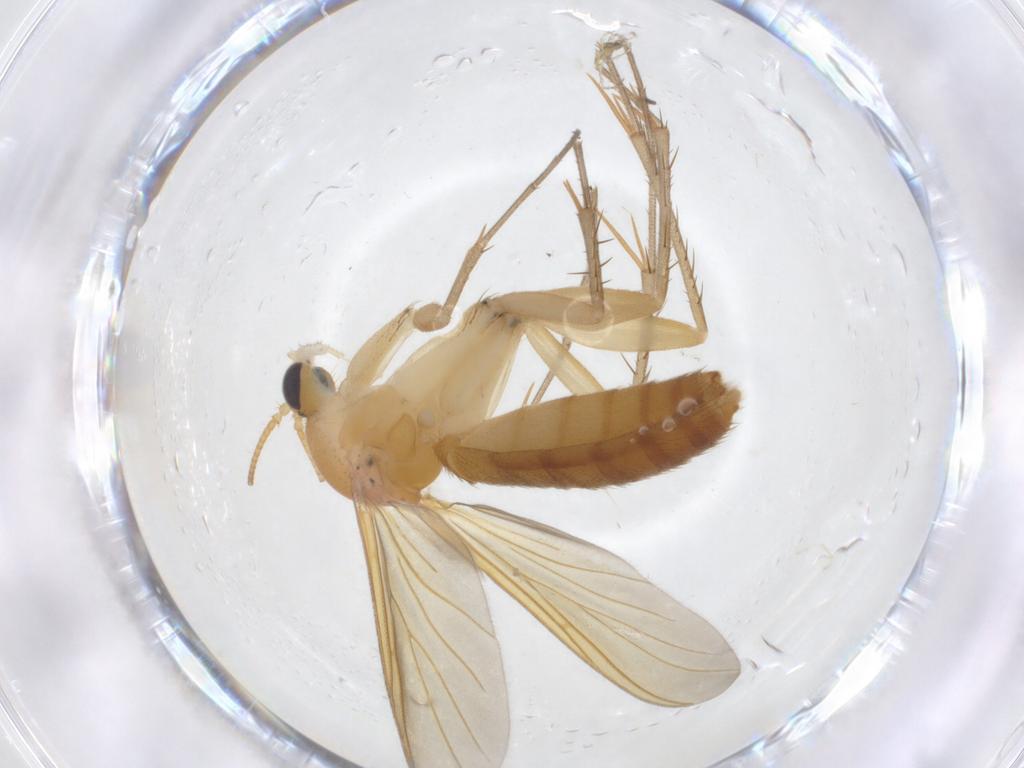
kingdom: Animalia
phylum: Arthropoda
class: Insecta
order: Diptera
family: Mycetophilidae
